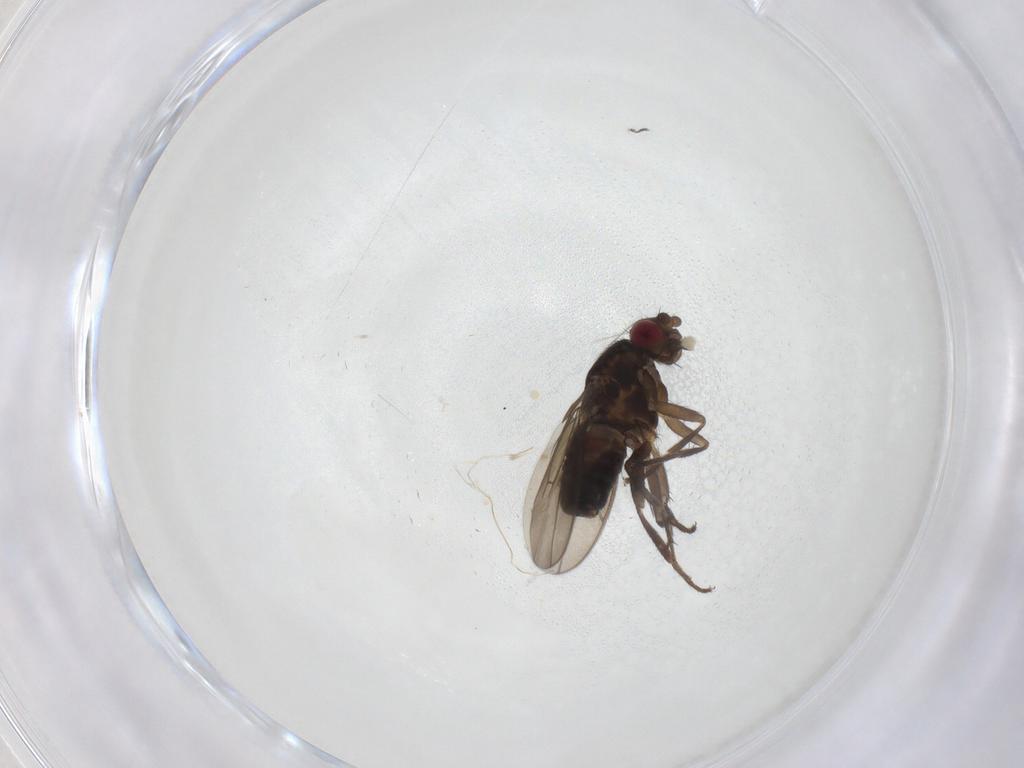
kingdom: Animalia
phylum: Arthropoda
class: Insecta
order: Diptera
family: Psychodidae
